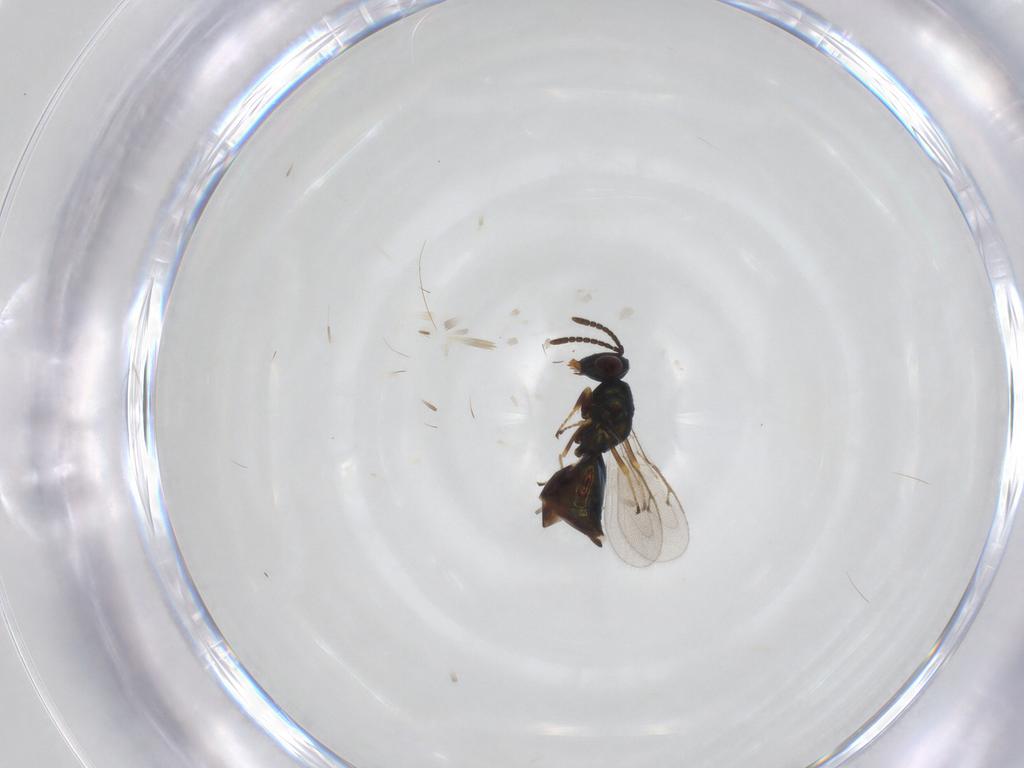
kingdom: Animalia
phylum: Arthropoda
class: Insecta
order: Hymenoptera
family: Pteromalidae
